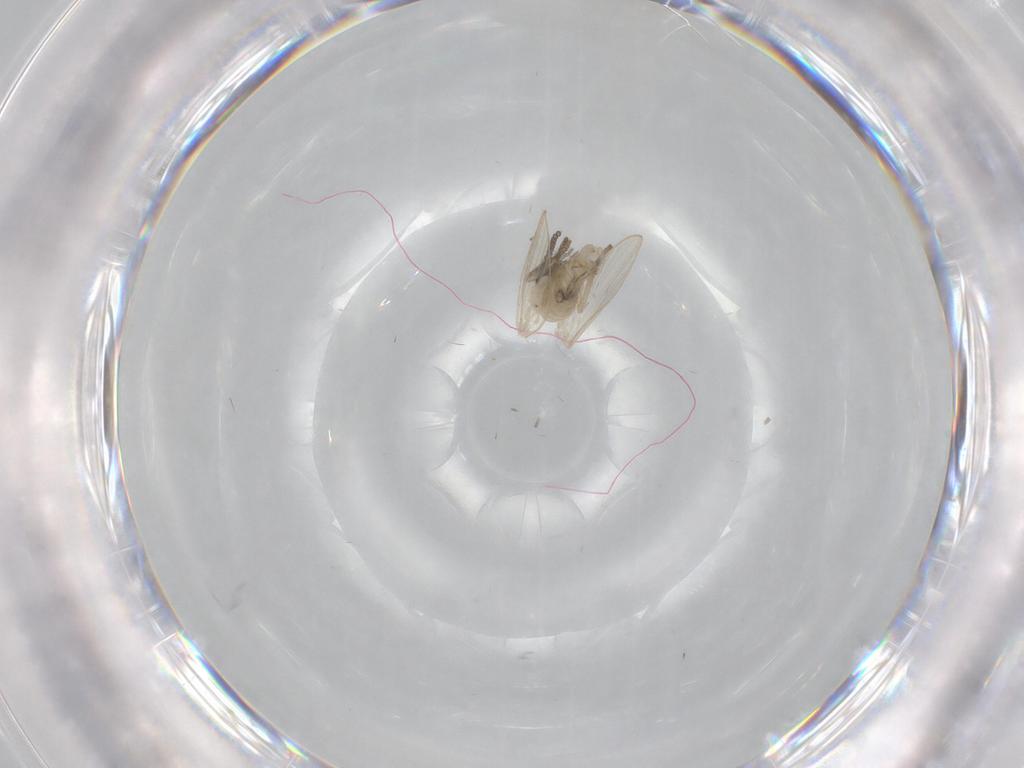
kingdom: Animalia
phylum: Arthropoda
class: Insecta
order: Diptera
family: Psychodidae
